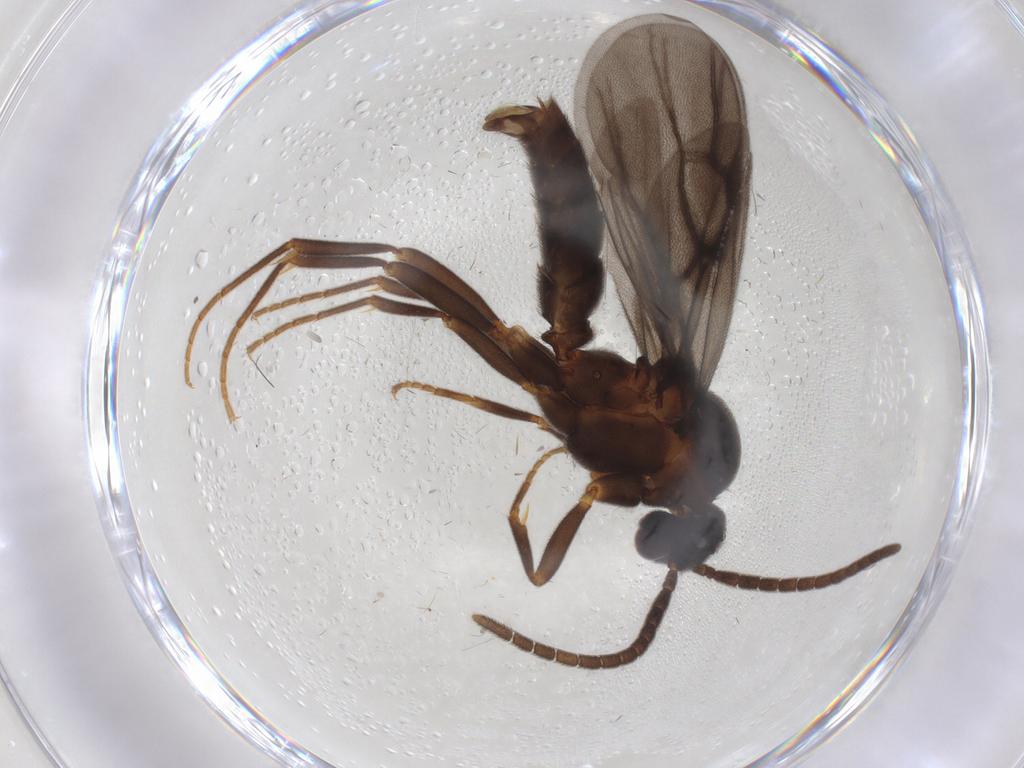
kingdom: Animalia
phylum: Arthropoda
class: Insecta
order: Hymenoptera
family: Formicidae
